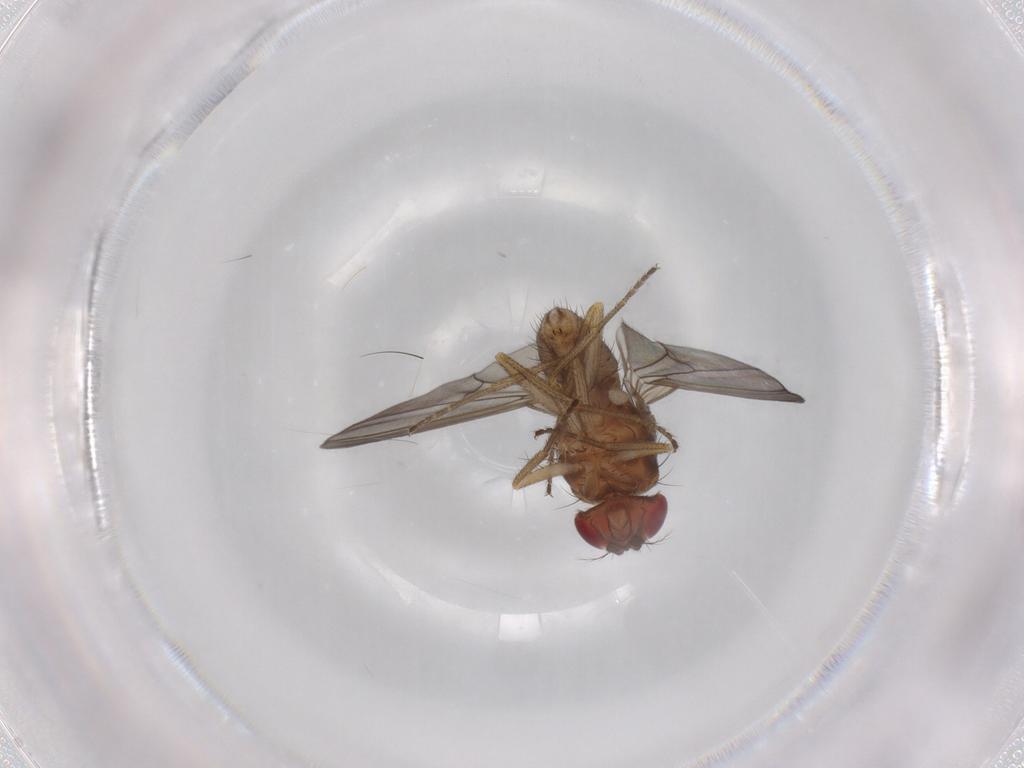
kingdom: Animalia
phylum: Arthropoda
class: Insecta
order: Diptera
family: Drosophilidae
